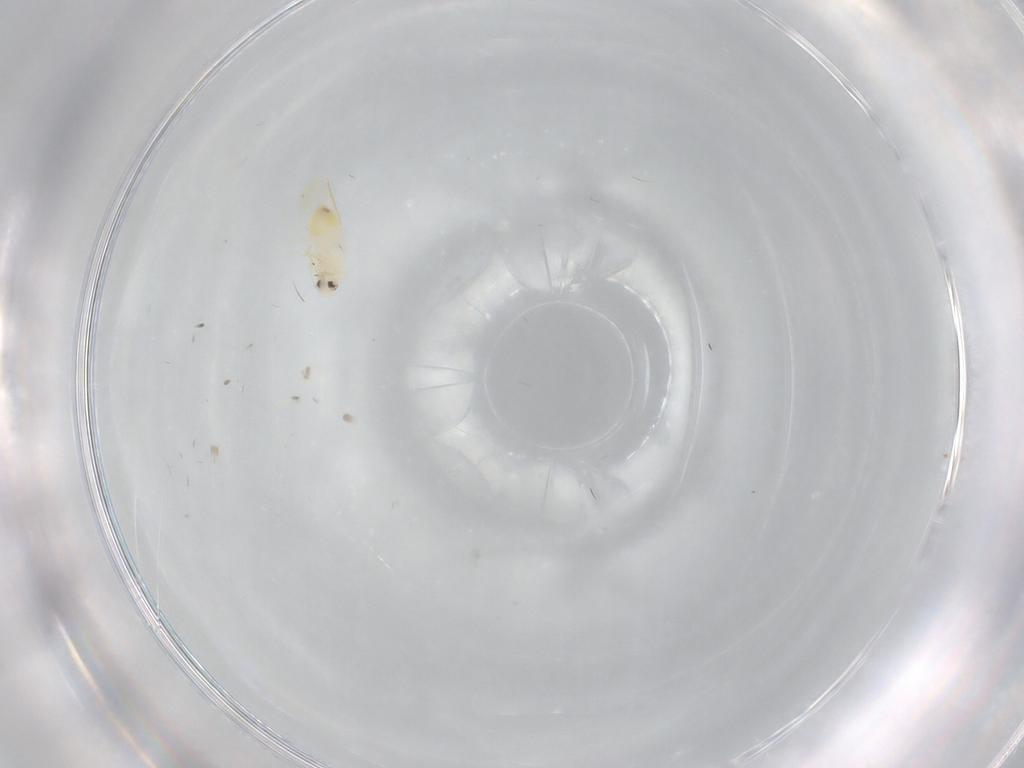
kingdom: Animalia
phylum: Arthropoda
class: Insecta
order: Hemiptera
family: Aleyrodidae
